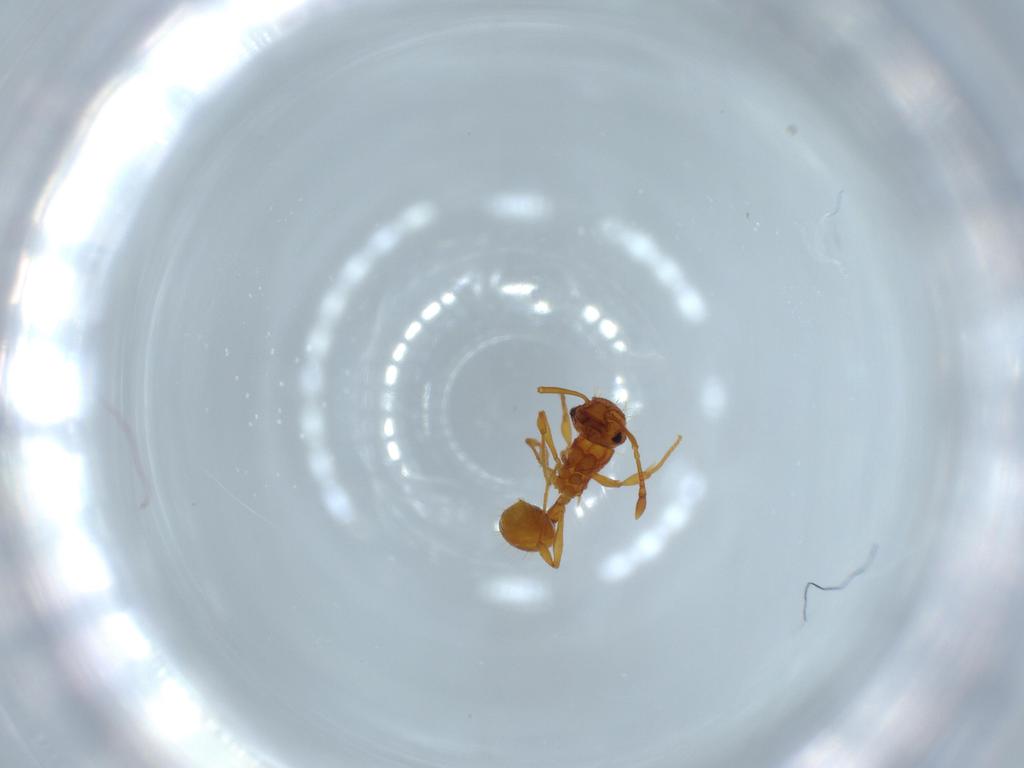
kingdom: Animalia
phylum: Arthropoda
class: Insecta
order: Hymenoptera
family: Formicidae
